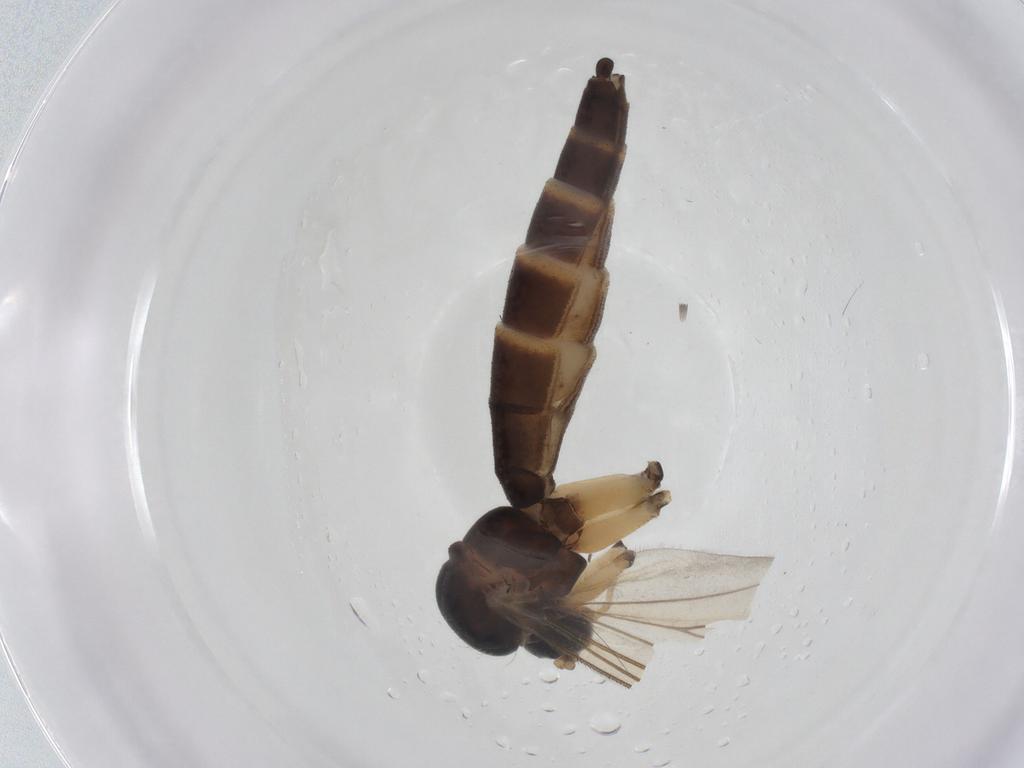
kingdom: Animalia
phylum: Arthropoda
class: Insecta
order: Diptera
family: Mycetophilidae
